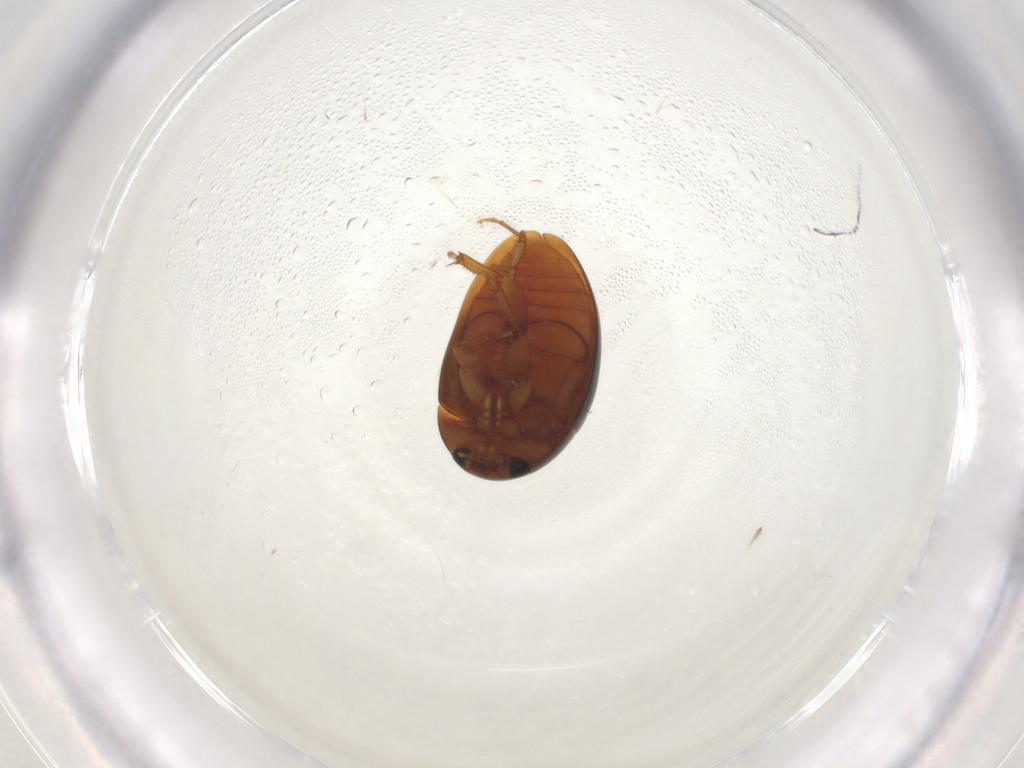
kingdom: Animalia
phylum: Arthropoda
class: Insecta
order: Coleoptera
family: Phalacridae
